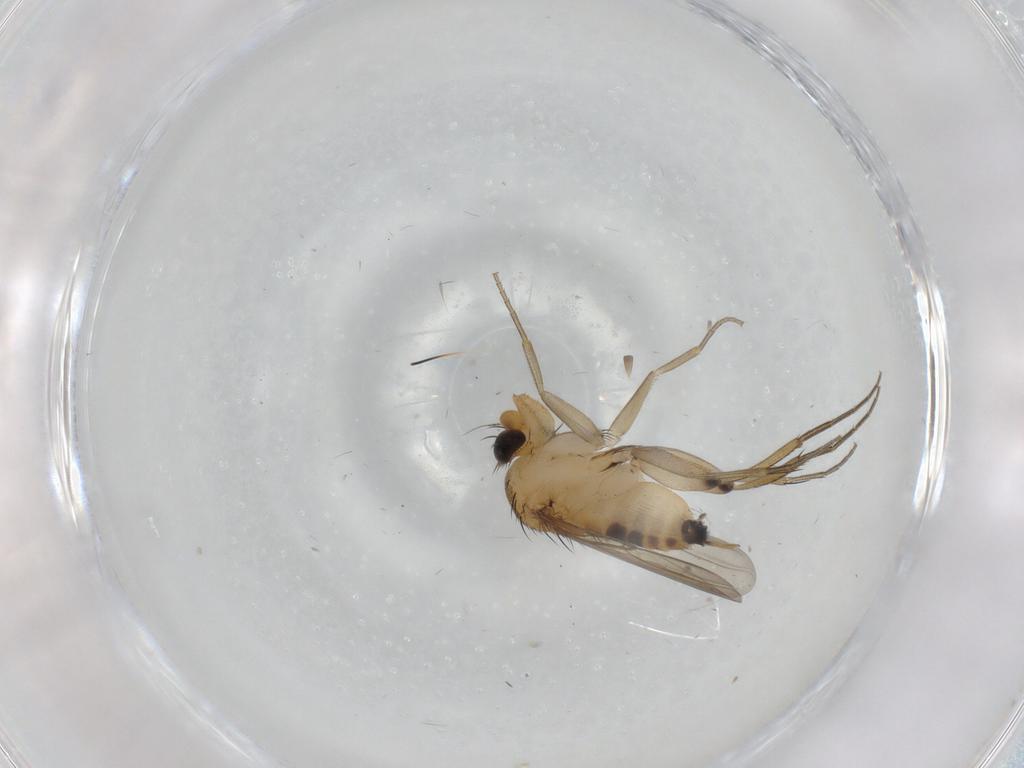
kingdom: Animalia
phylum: Arthropoda
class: Insecta
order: Diptera
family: Phoridae
